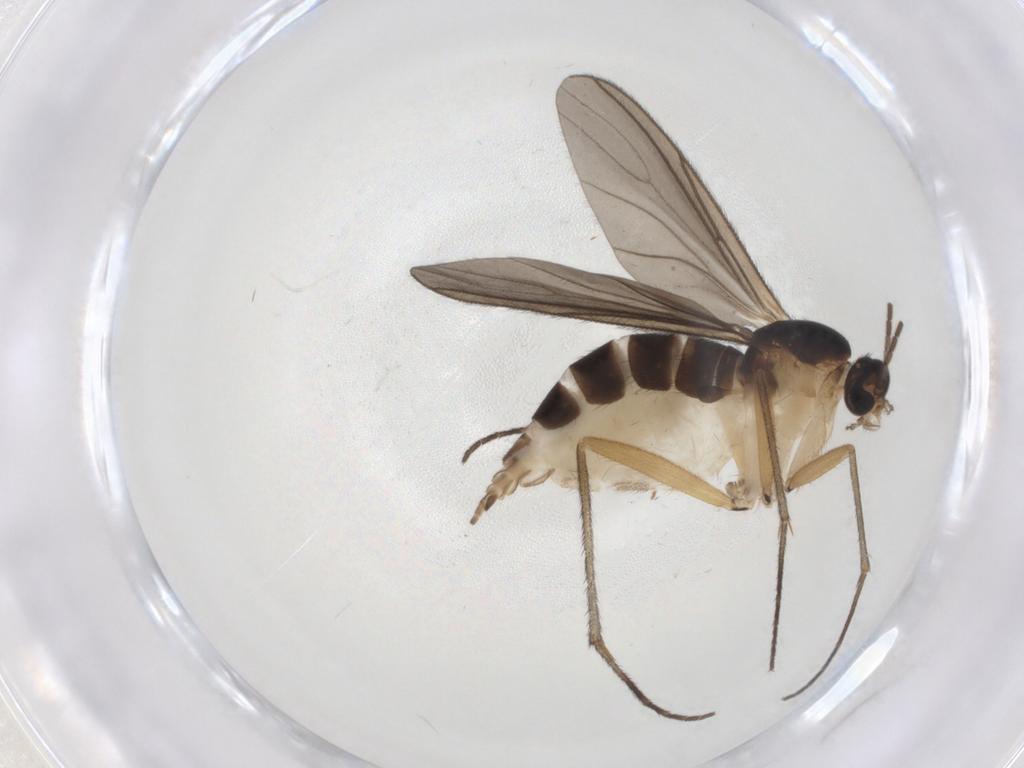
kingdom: Animalia
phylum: Arthropoda
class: Insecta
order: Diptera
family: Sciaridae
